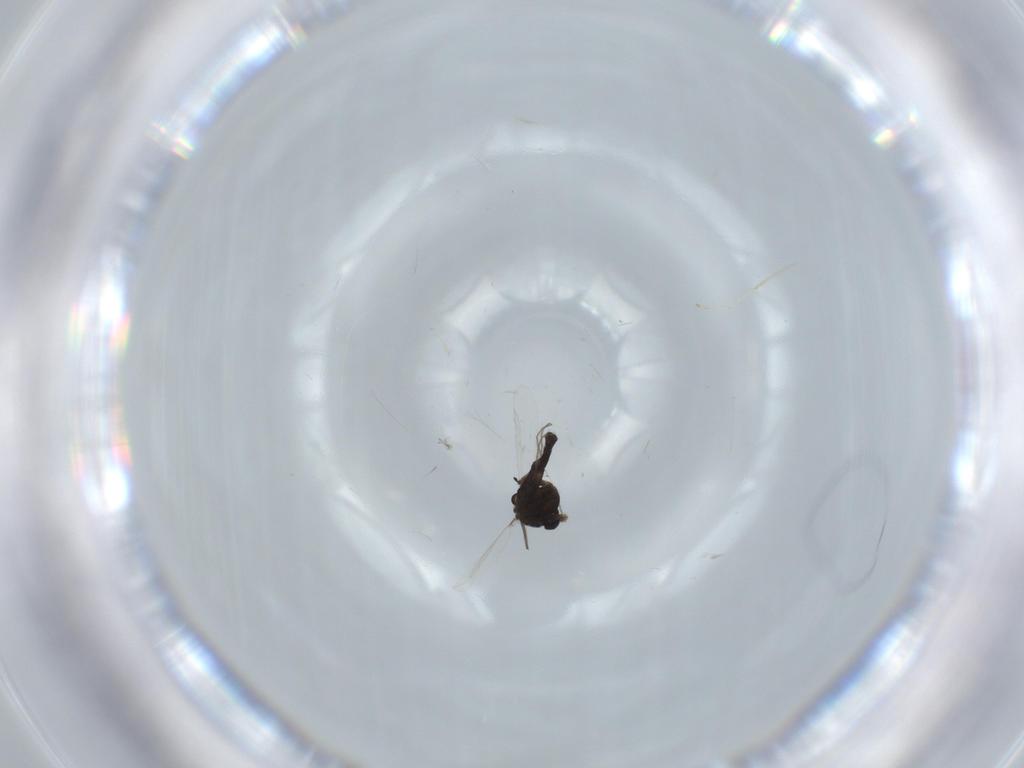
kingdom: Animalia
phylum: Arthropoda
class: Insecta
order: Diptera
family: Chironomidae
